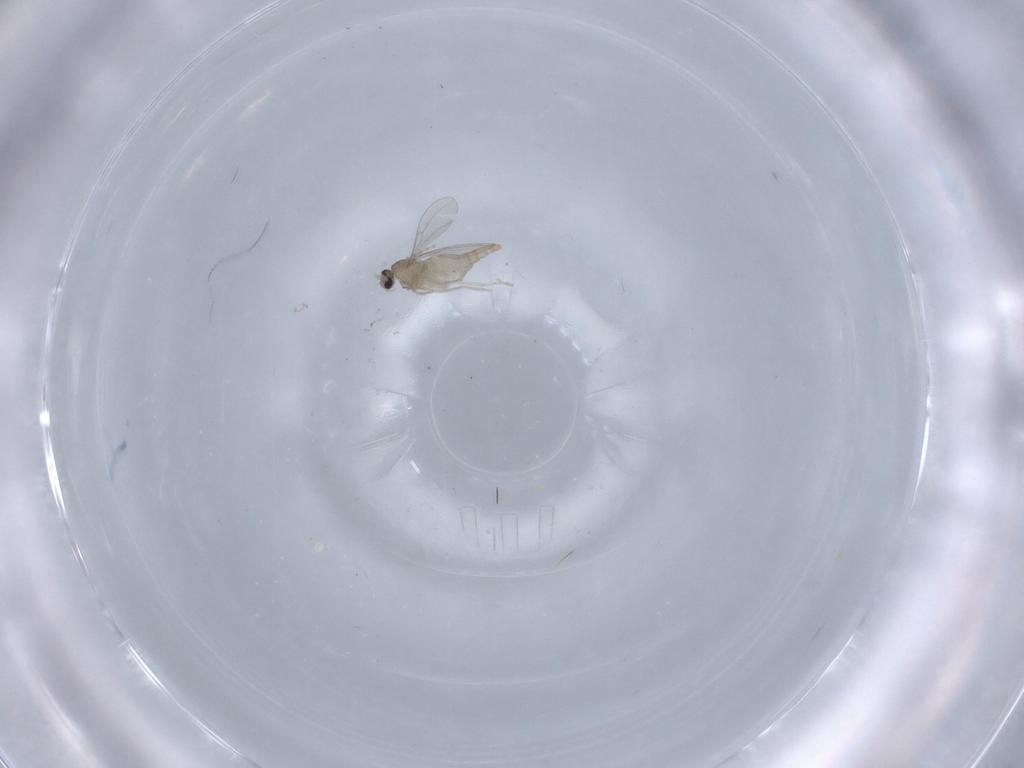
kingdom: Animalia
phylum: Arthropoda
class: Insecta
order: Diptera
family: Cecidomyiidae
